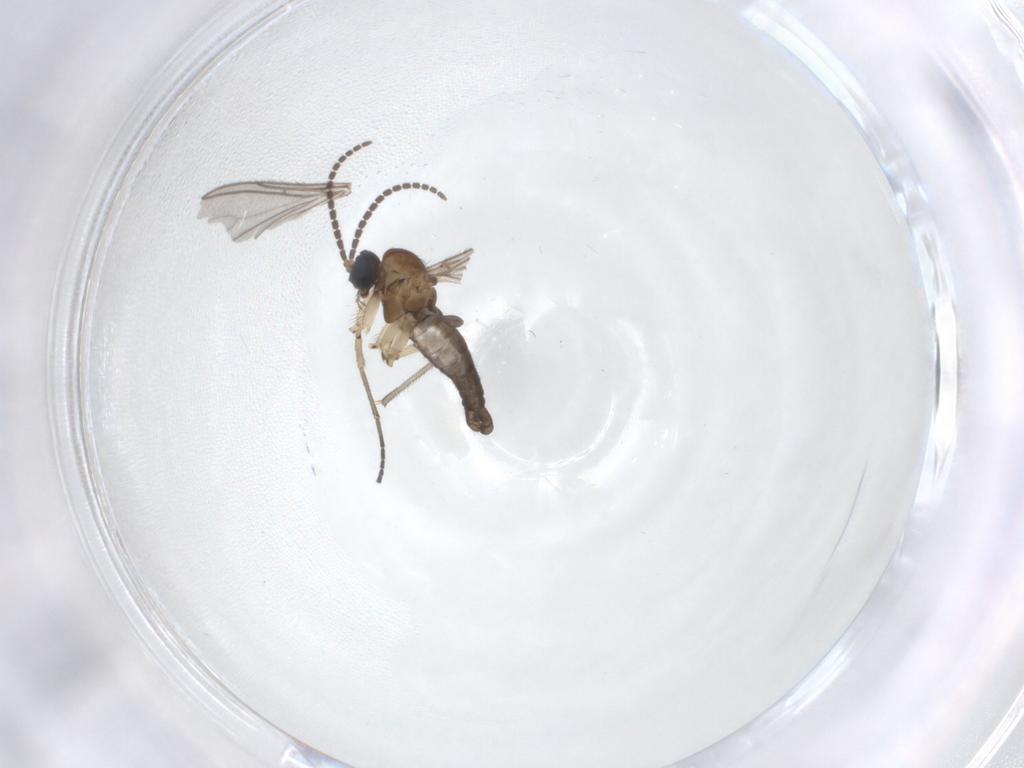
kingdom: Animalia
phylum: Arthropoda
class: Insecta
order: Diptera
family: Sciaridae
